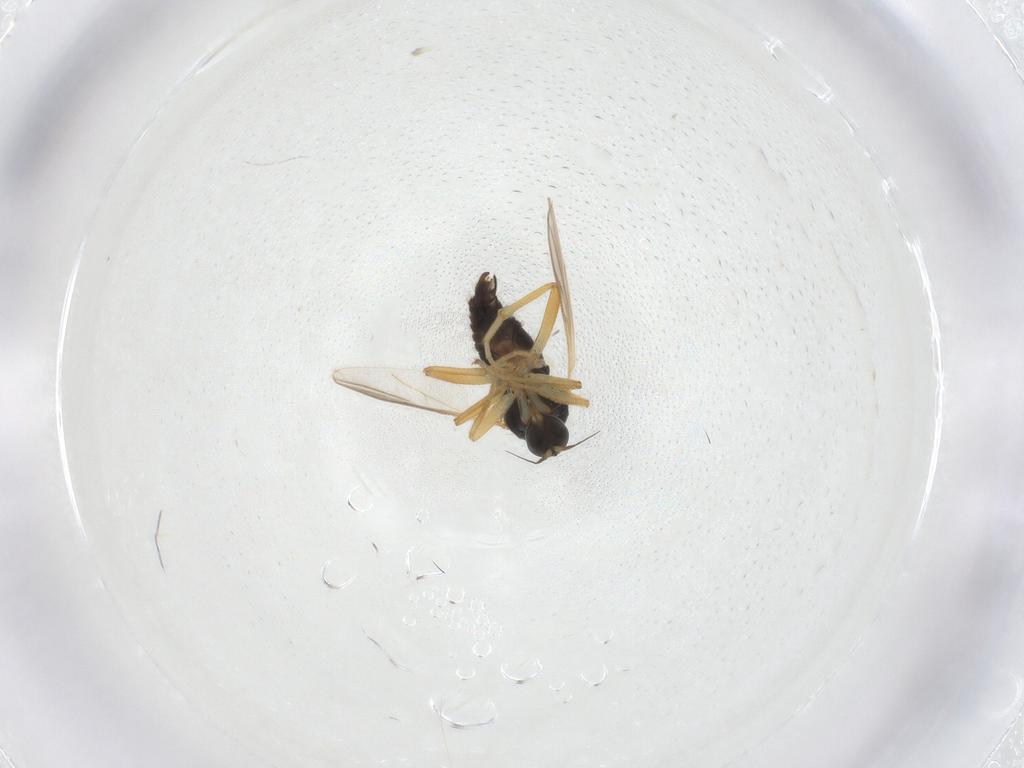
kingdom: Animalia
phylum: Arthropoda
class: Insecta
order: Diptera
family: Hybotidae
